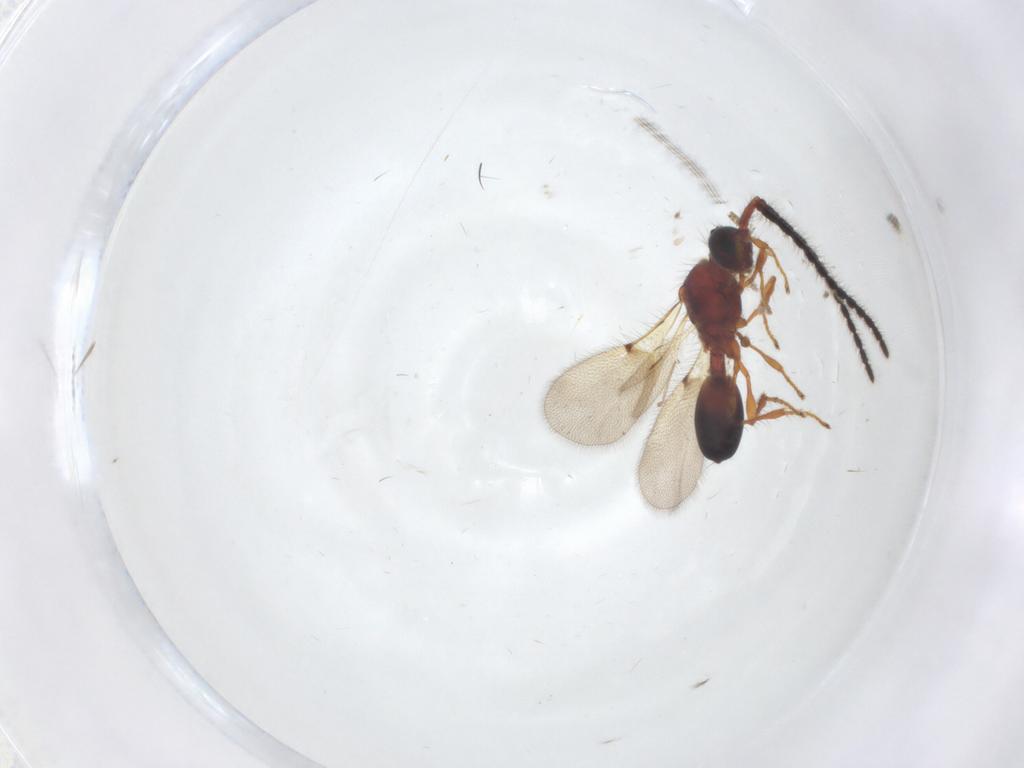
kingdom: Animalia
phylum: Arthropoda
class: Insecta
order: Hymenoptera
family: Diapriidae
